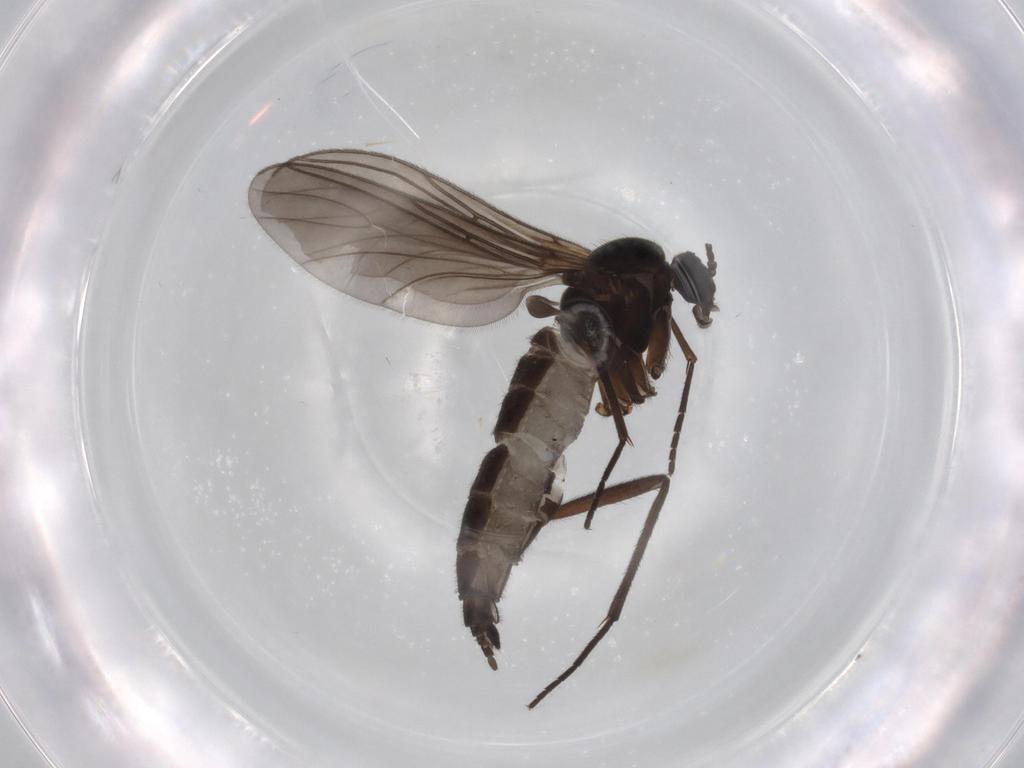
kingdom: Animalia
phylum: Arthropoda
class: Insecta
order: Diptera
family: Sciaridae
